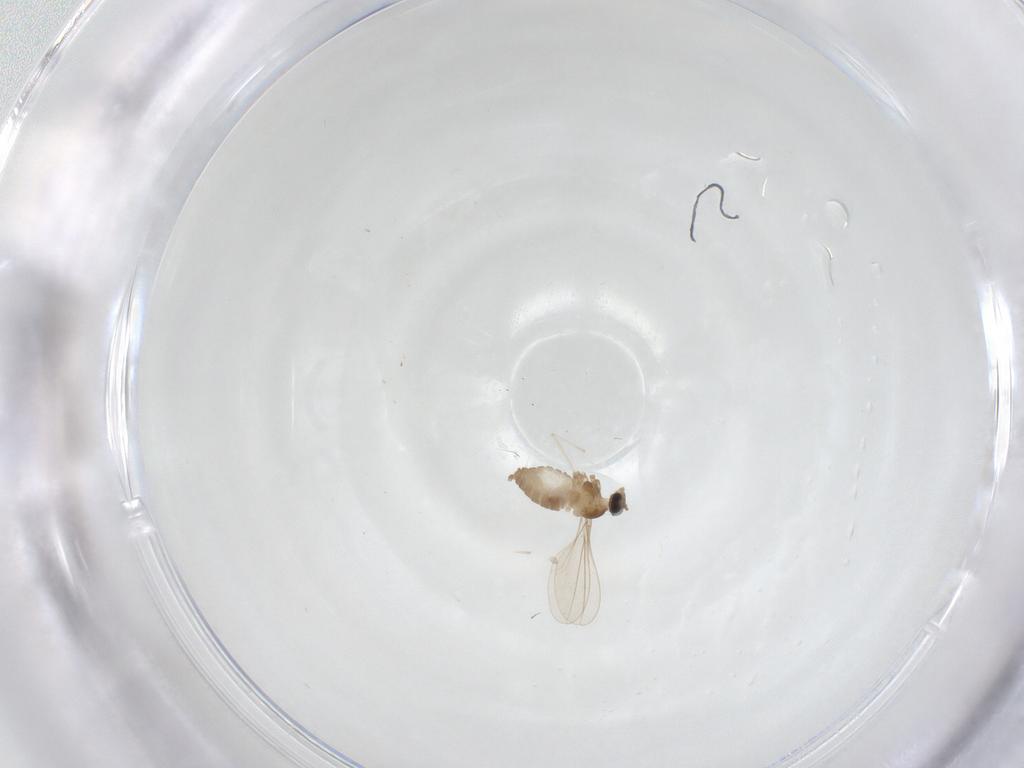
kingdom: Animalia
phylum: Arthropoda
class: Insecta
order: Diptera
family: Cecidomyiidae
